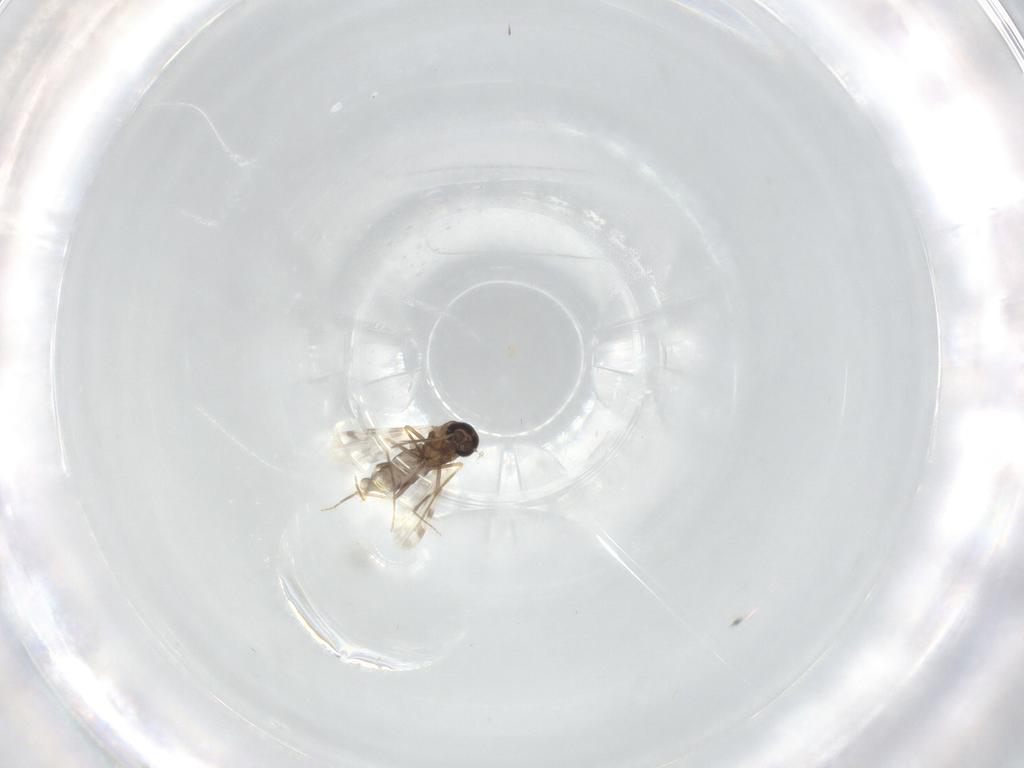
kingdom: Animalia
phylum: Arthropoda
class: Insecta
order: Diptera
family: Ceratopogonidae
